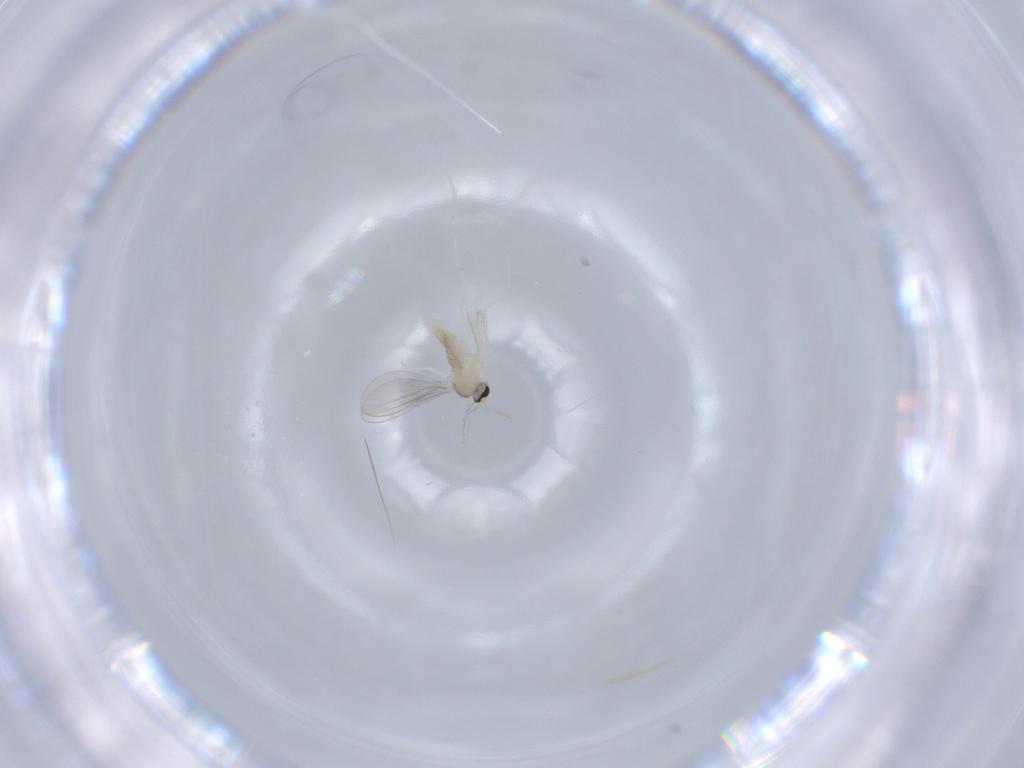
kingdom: Animalia
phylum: Arthropoda
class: Insecta
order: Diptera
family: Cecidomyiidae
